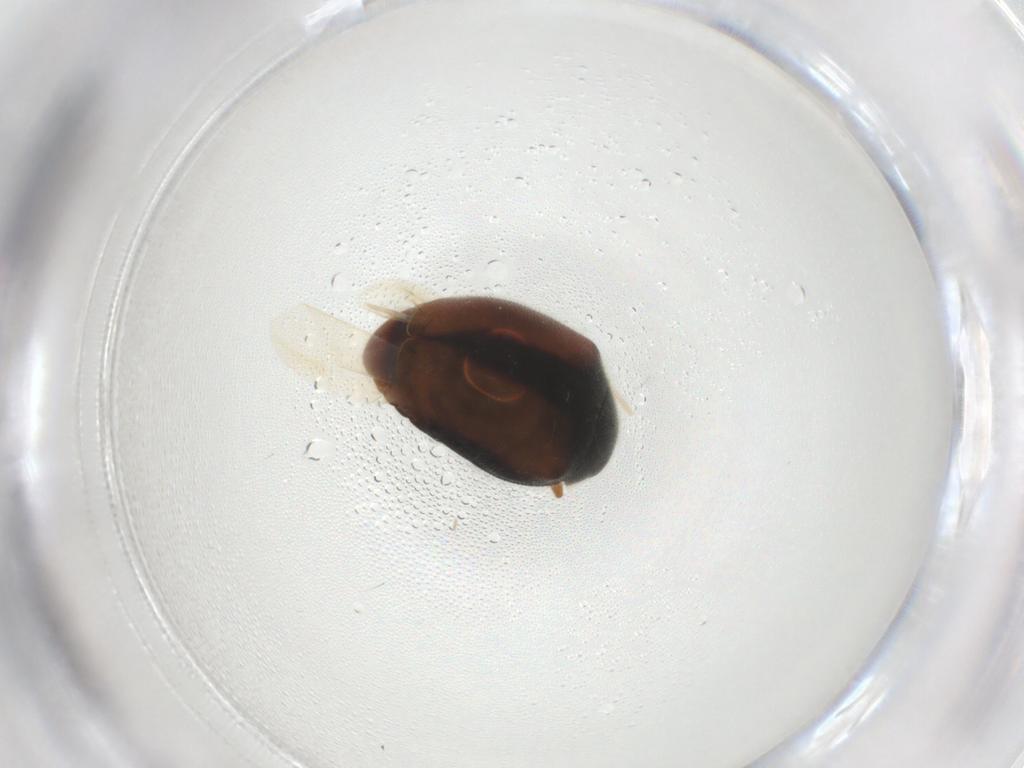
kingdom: Animalia
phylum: Arthropoda
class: Insecta
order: Coleoptera
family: Coccinellidae
